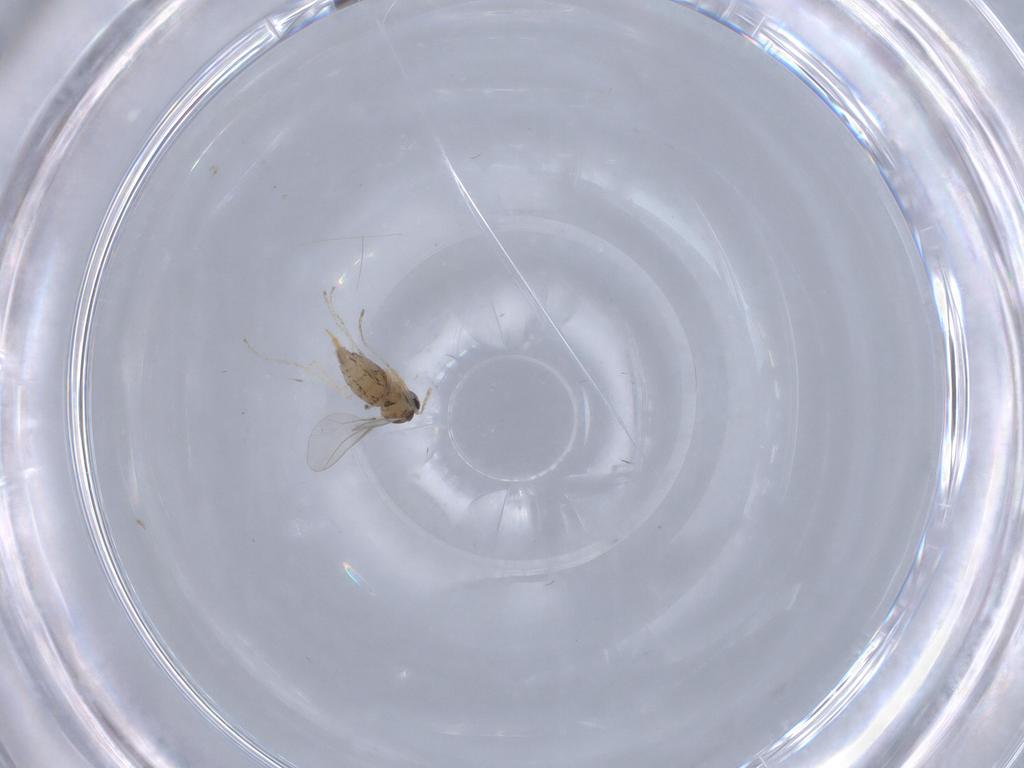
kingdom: Animalia
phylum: Arthropoda
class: Insecta
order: Diptera
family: Cecidomyiidae
